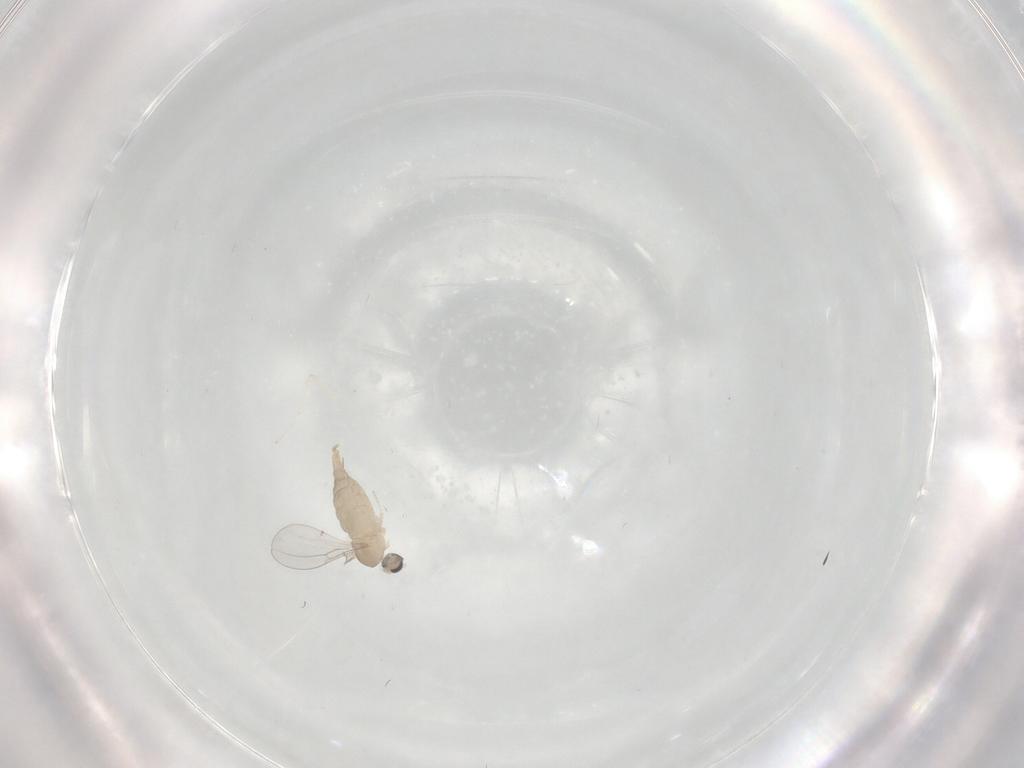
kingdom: Animalia
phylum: Arthropoda
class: Insecta
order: Diptera
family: Cecidomyiidae
